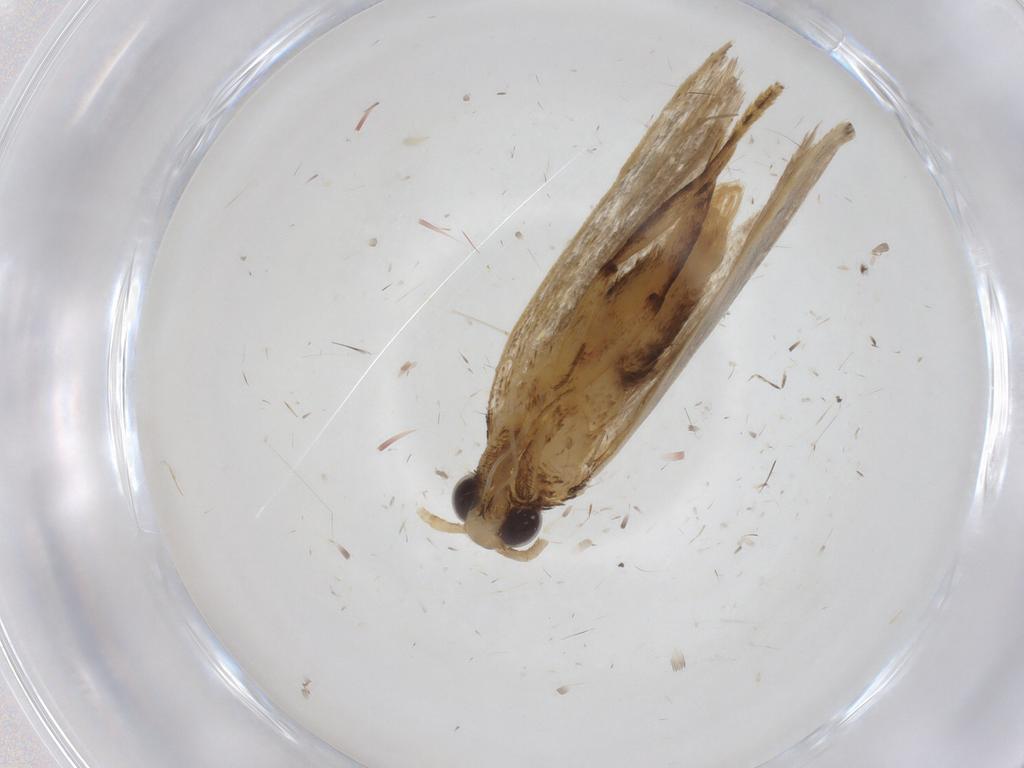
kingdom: Animalia
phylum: Arthropoda
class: Insecta
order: Lepidoptera
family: Lecithoceridae
